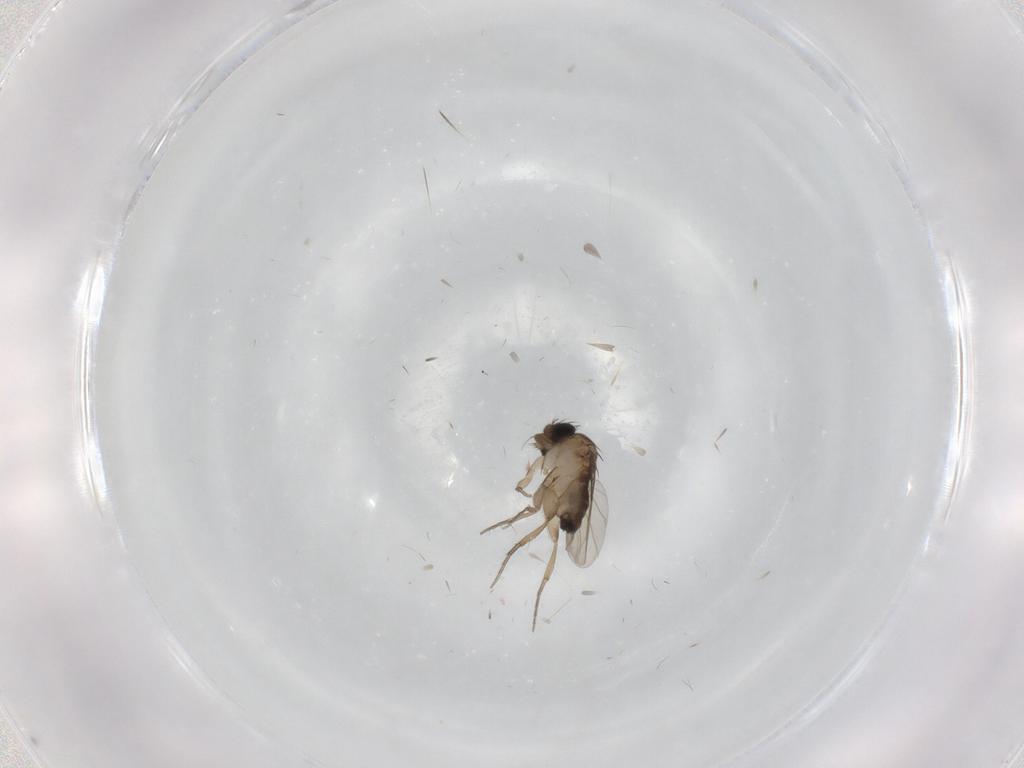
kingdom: Animalia
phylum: Arthropoda
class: Insecta
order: Diptera
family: Phoridae
